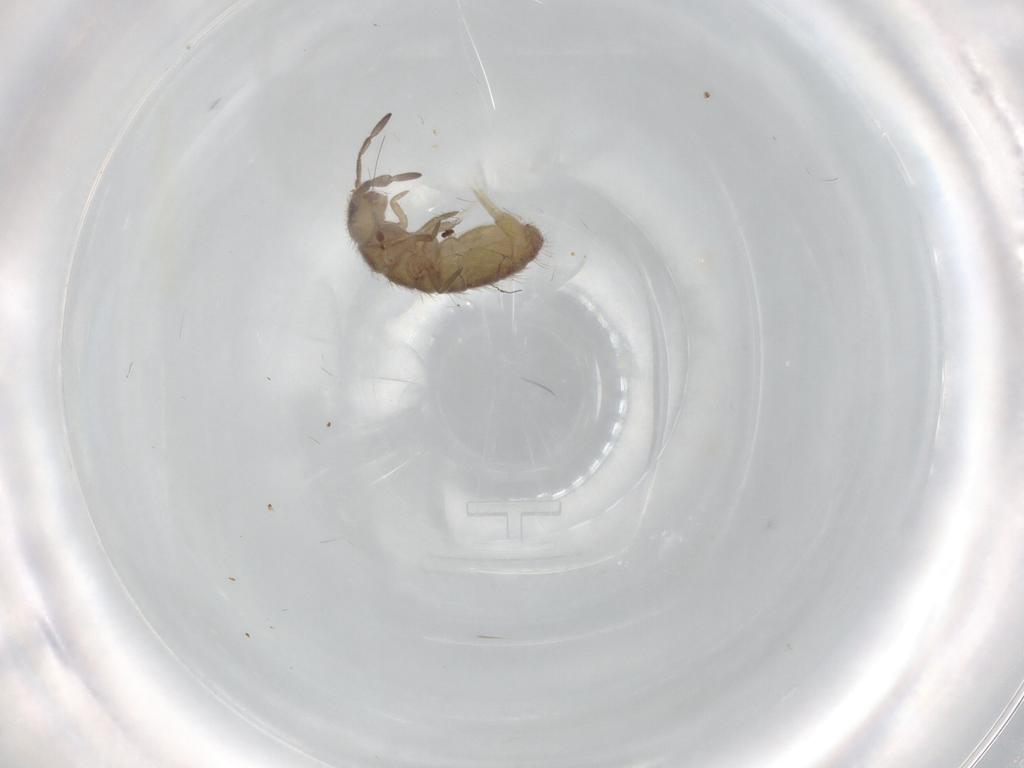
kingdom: Animalia
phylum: Arthropoda
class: Collembola
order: Entomobryomorpha
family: Isotomidae
